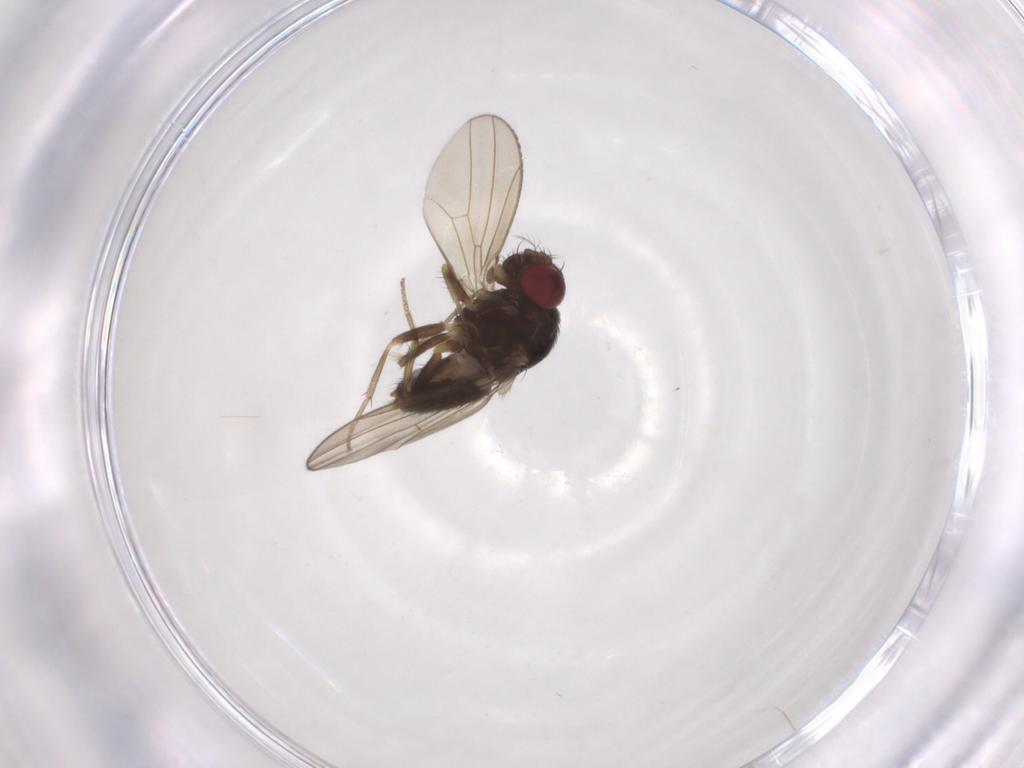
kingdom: Animalia
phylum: Arthropoda
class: Insecta
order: Diptera
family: Drosophilidae
